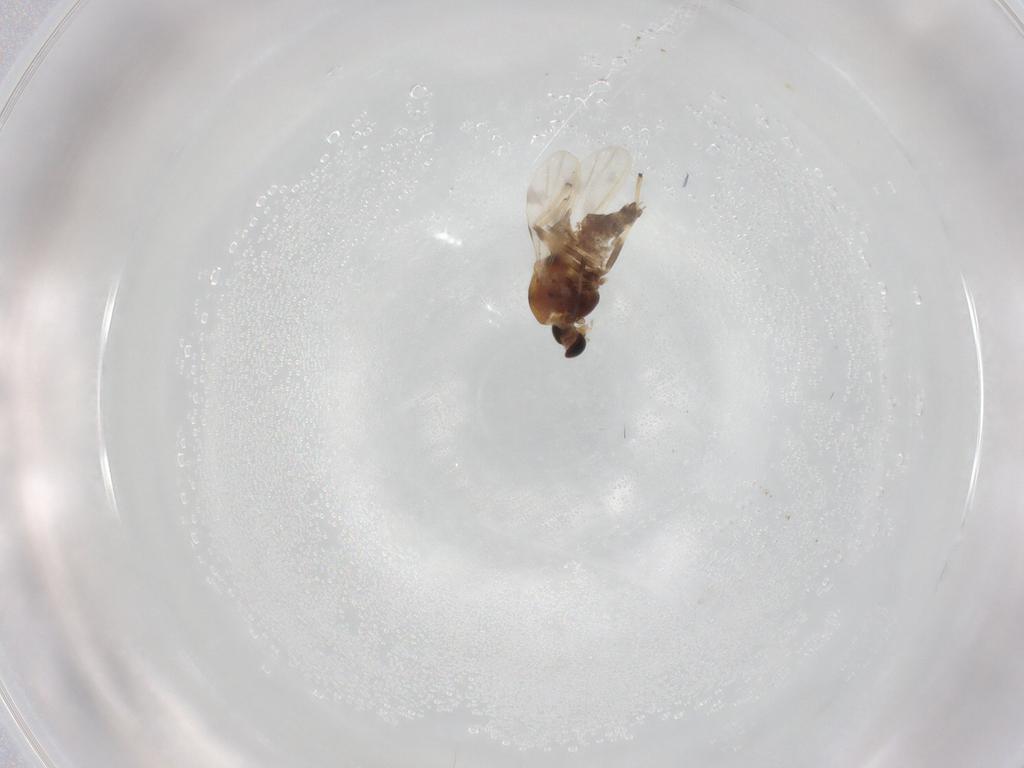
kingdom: Animalia
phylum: Arthropoda
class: Insecta
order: Diptera
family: Chironomidae
